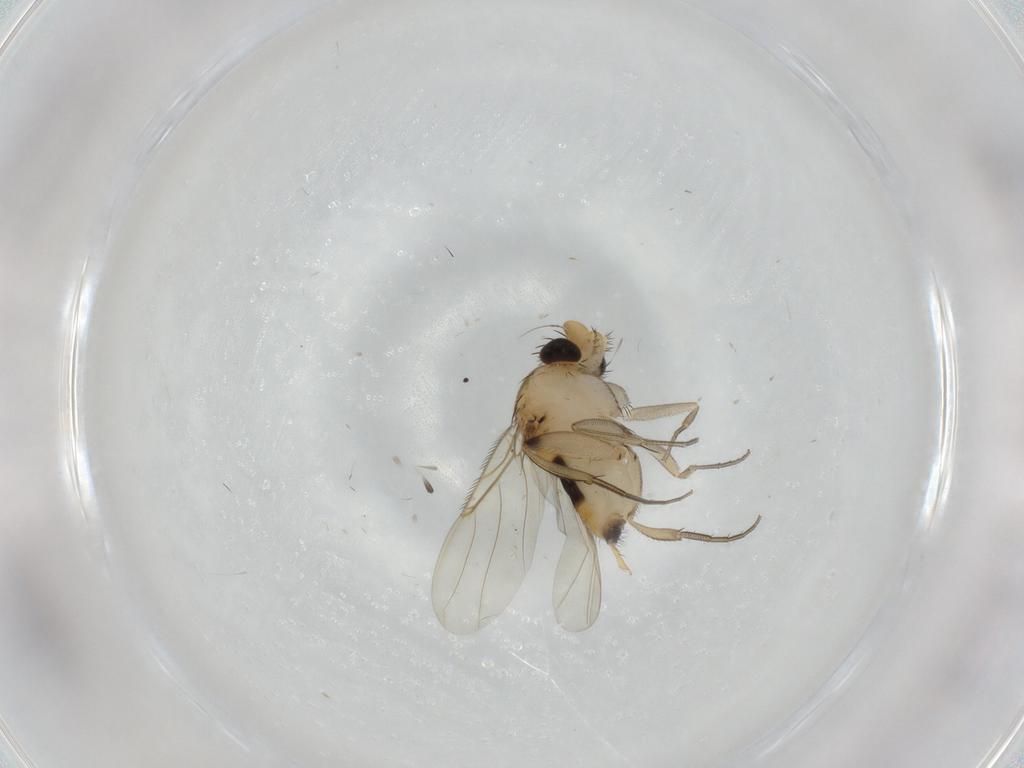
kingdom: Animalia
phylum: Arthropoda
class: Insecta
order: Diptera
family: Phoridae
